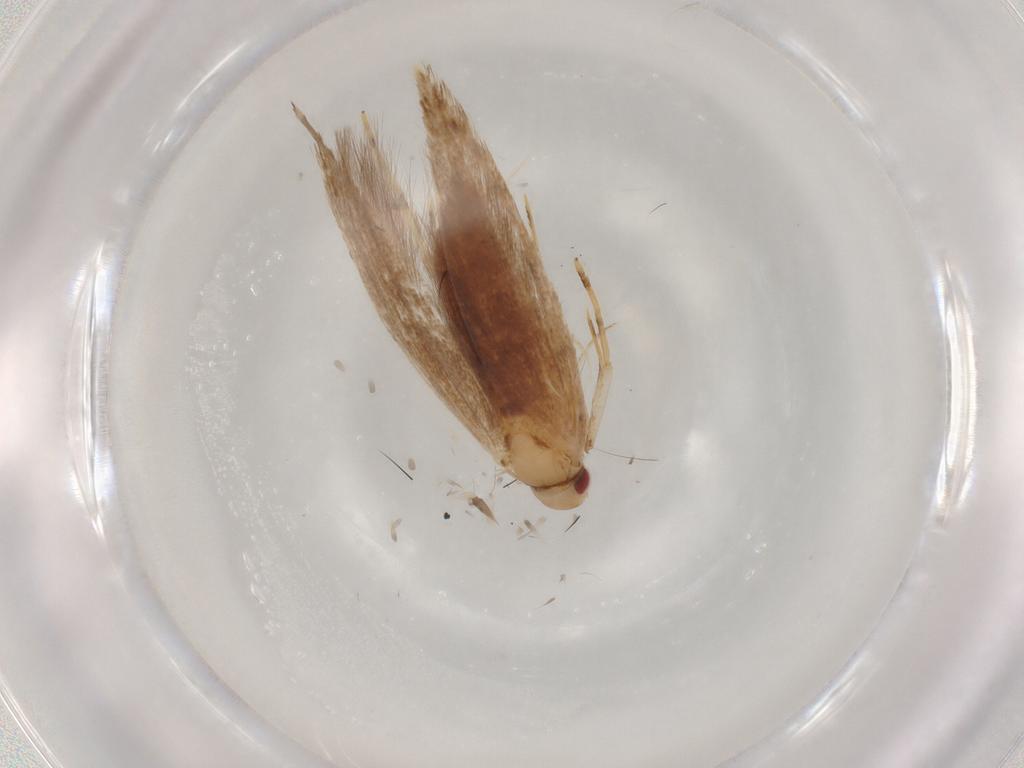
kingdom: Animalia
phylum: Arthropoda
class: Insecta
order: Lepidoptera
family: Cosmopterigidae
